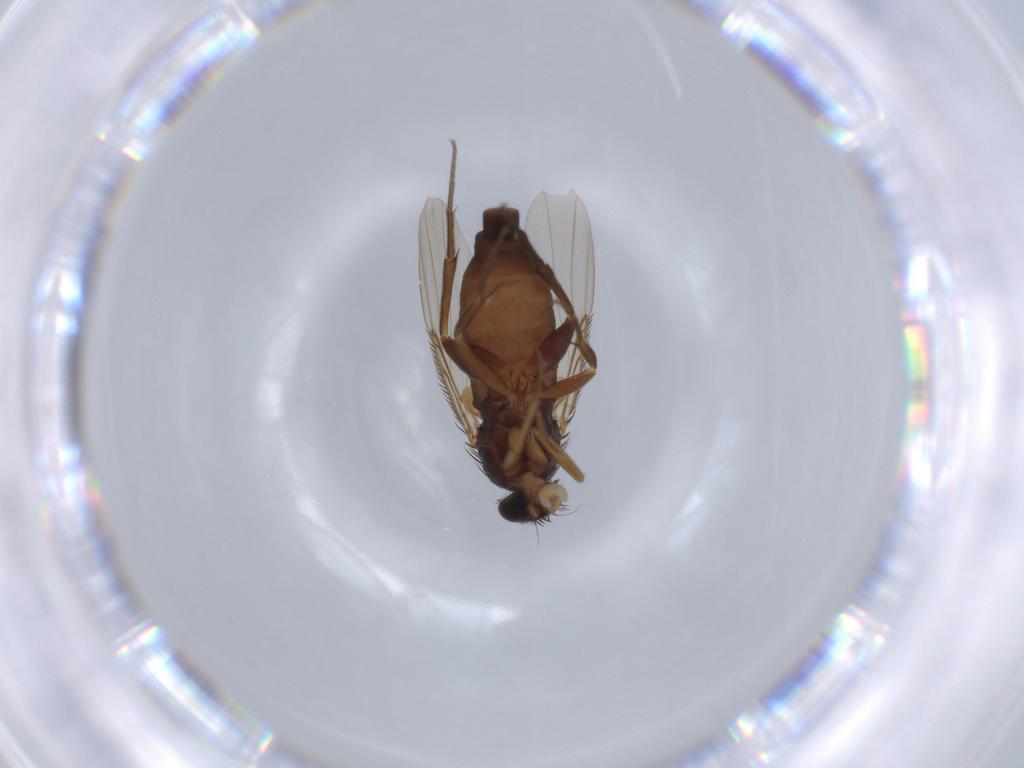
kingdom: Animalia
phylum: Arthropoda
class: Insecta
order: Diptera
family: Phoridae
